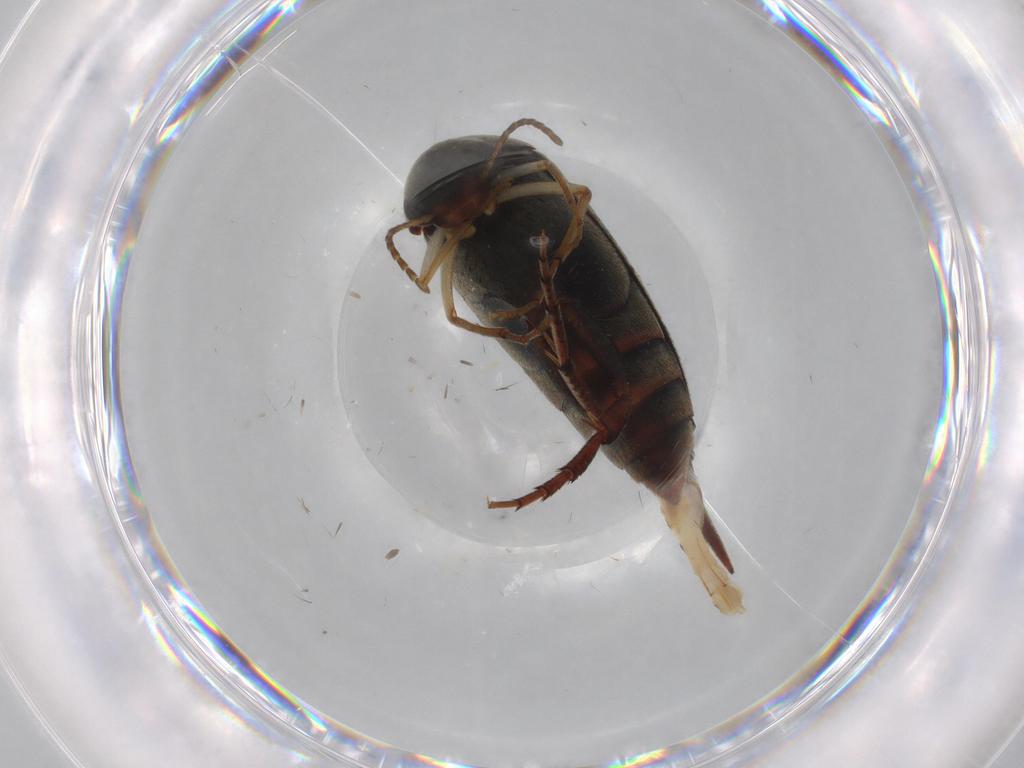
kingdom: Animalia
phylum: Arthropoda
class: Insecta
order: Coleoptera
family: Mordellidae
